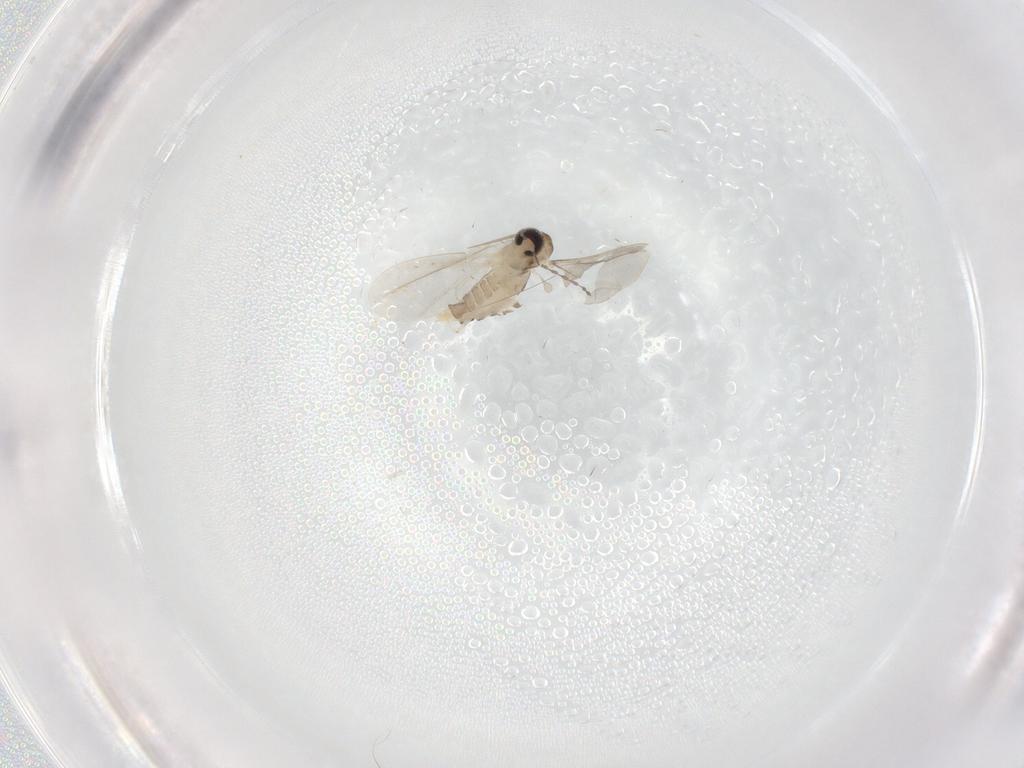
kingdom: Animalia
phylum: Arthropoda
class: Insecta
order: Diptera
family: Cecidomyiidae
